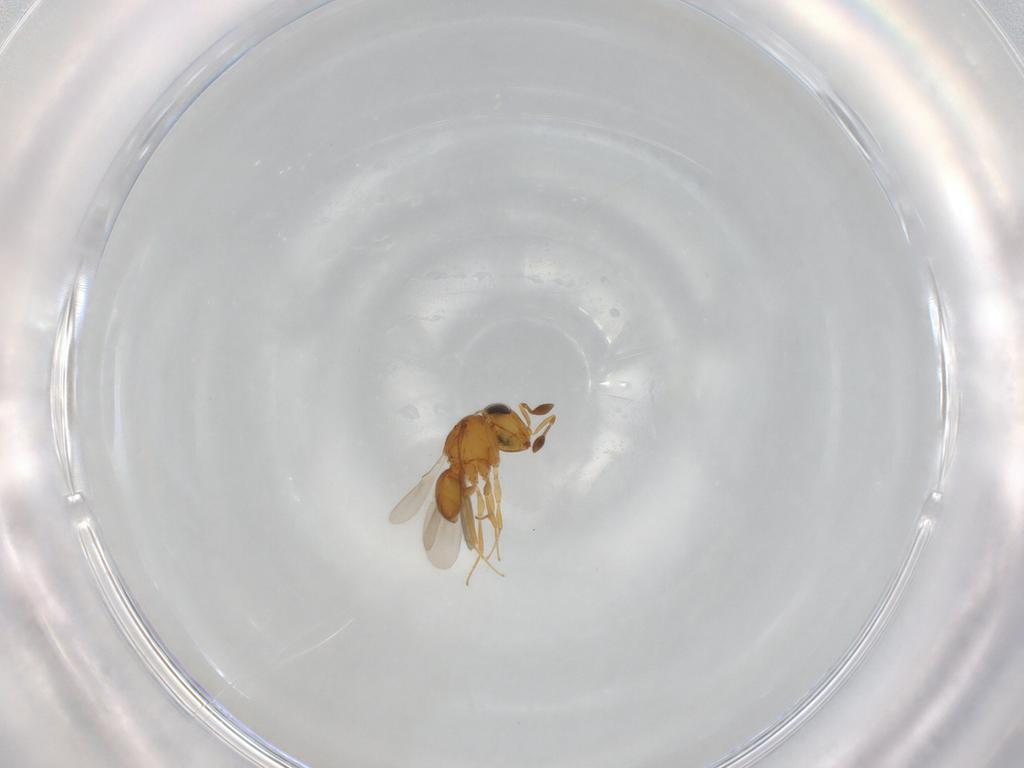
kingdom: Animalia
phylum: Arthropoda
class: Insecta
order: Hymenoptera
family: Scelionidae
